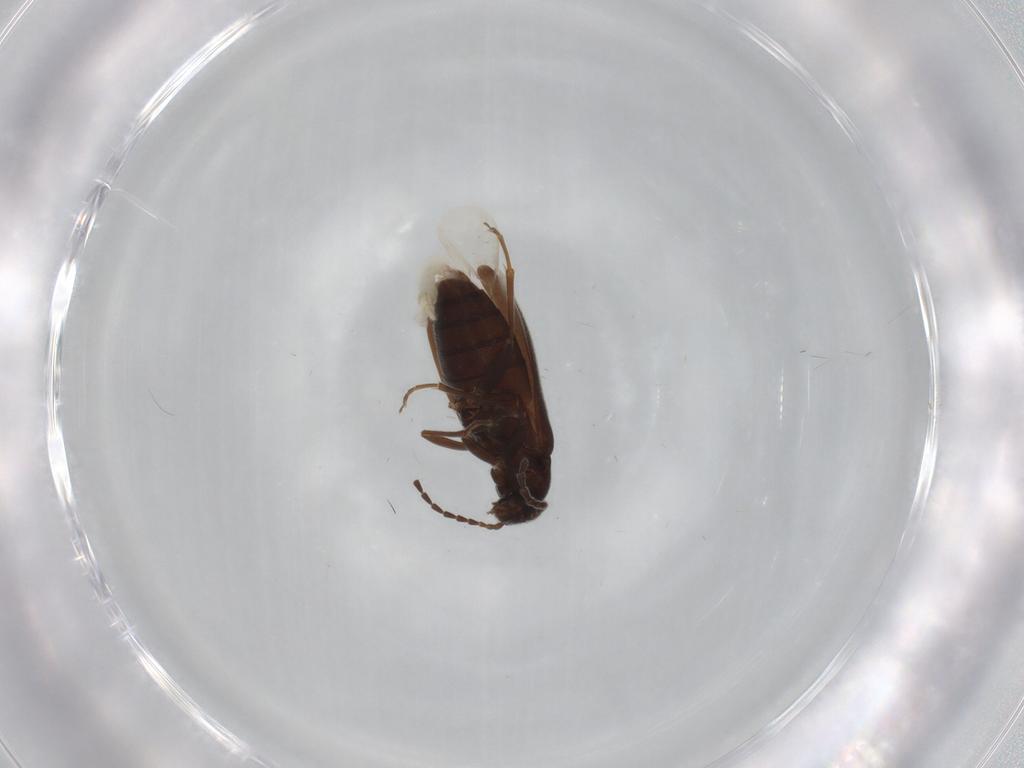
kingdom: Animalia
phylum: Arthropoda
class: Insecta
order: Coleoptera
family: Scraptiidae
